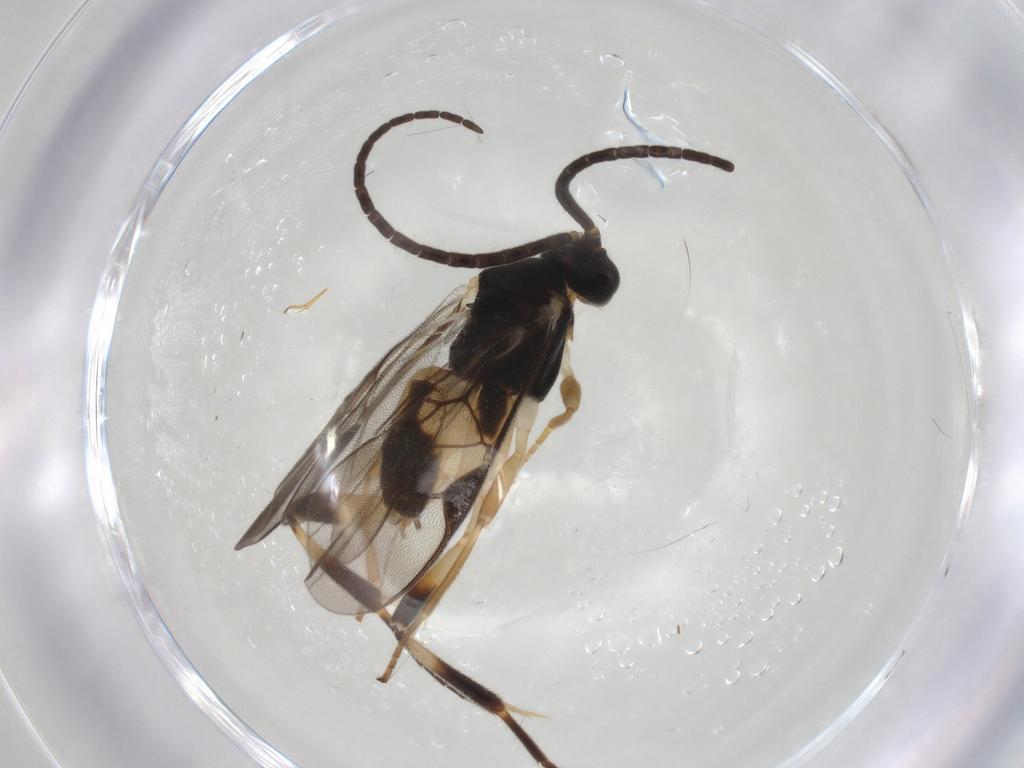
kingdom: Animalia
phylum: Arthropoda
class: Insecta
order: Hymenoptera
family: Braconidae
